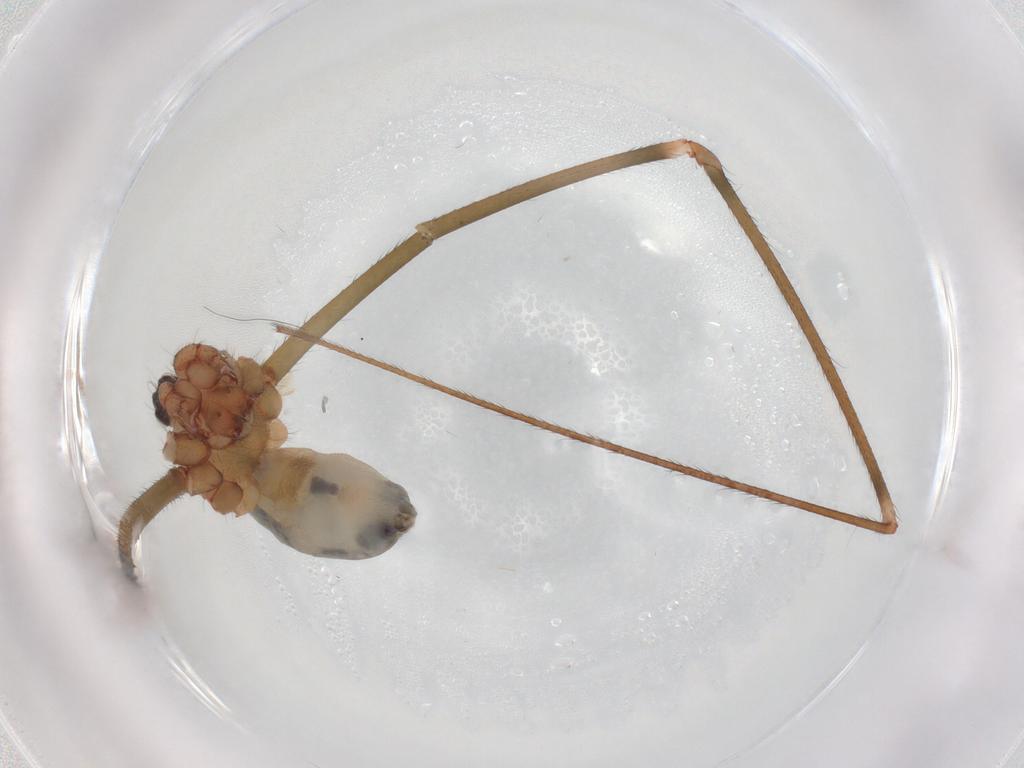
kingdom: Animalia
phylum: Arthropoda
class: Arachnida
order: Araneae
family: Pholcidae
